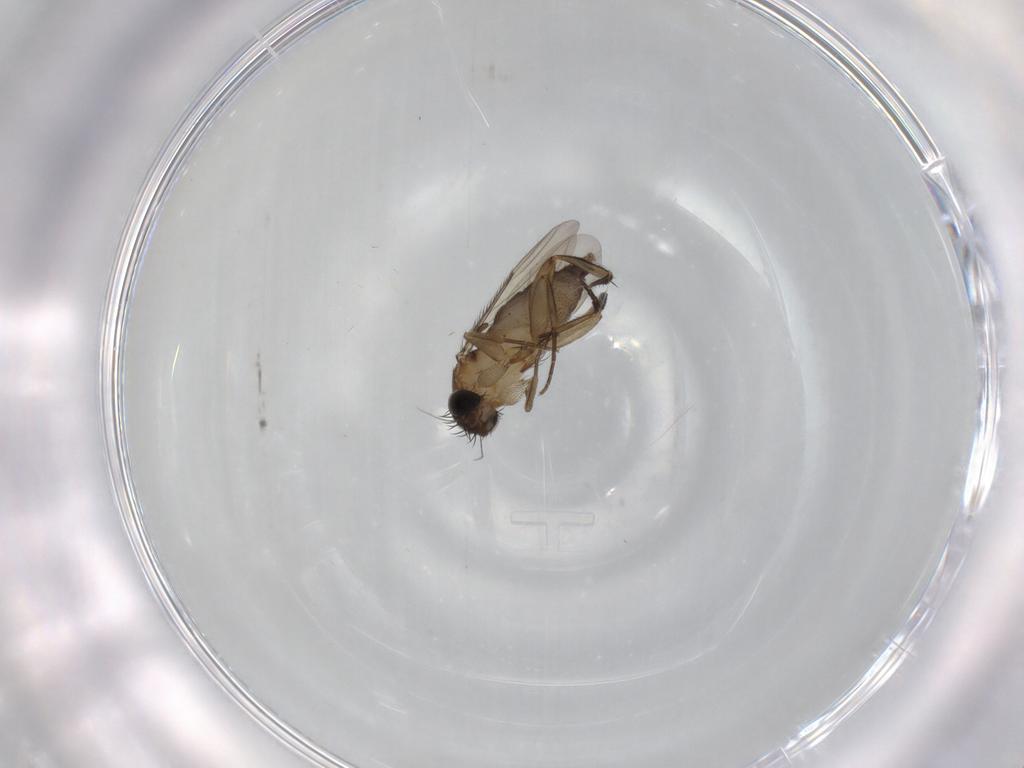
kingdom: Animalia
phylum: Arthropoda
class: Insecta
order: Diptera
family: Phoridae
